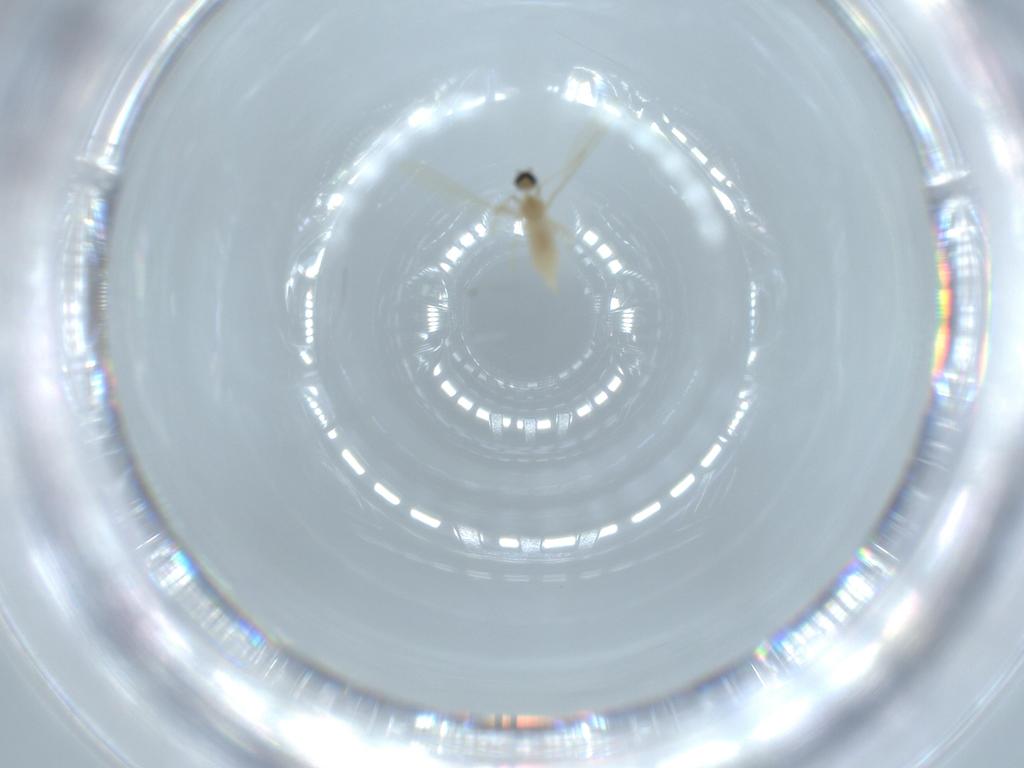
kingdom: Animalia
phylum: Arthropoda
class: Insecta
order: Diptera
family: Cecidomyiidae
